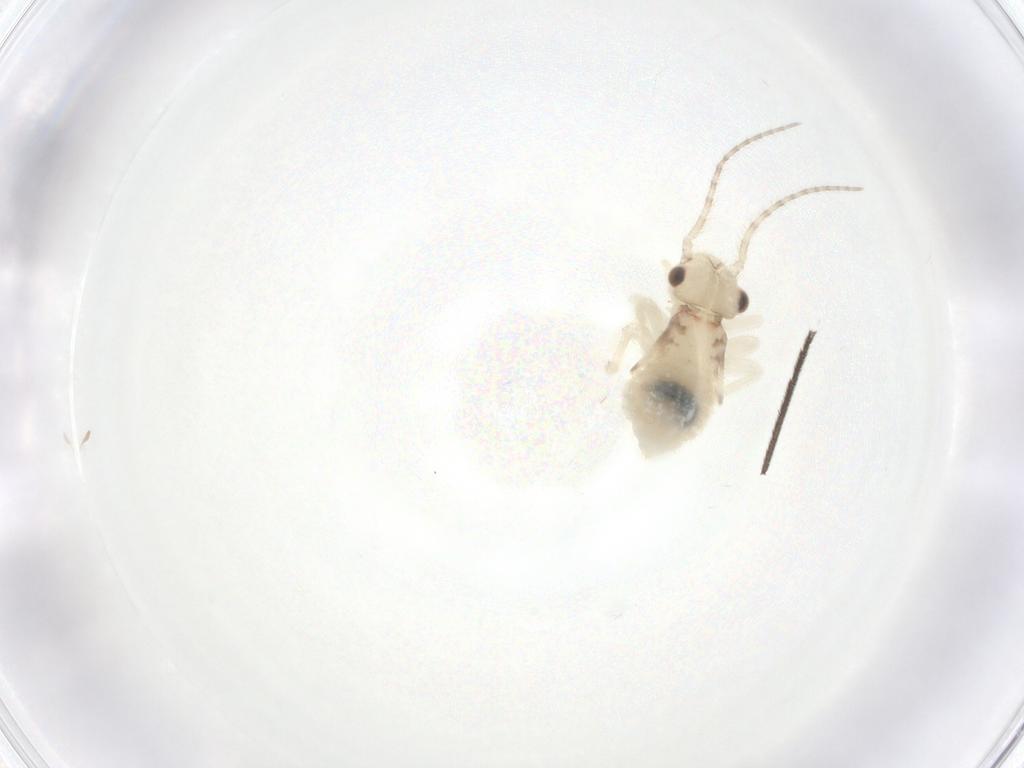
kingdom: Animalia
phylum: Arthropoda
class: Insecta
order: Psocodea
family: Amphipsocidae
